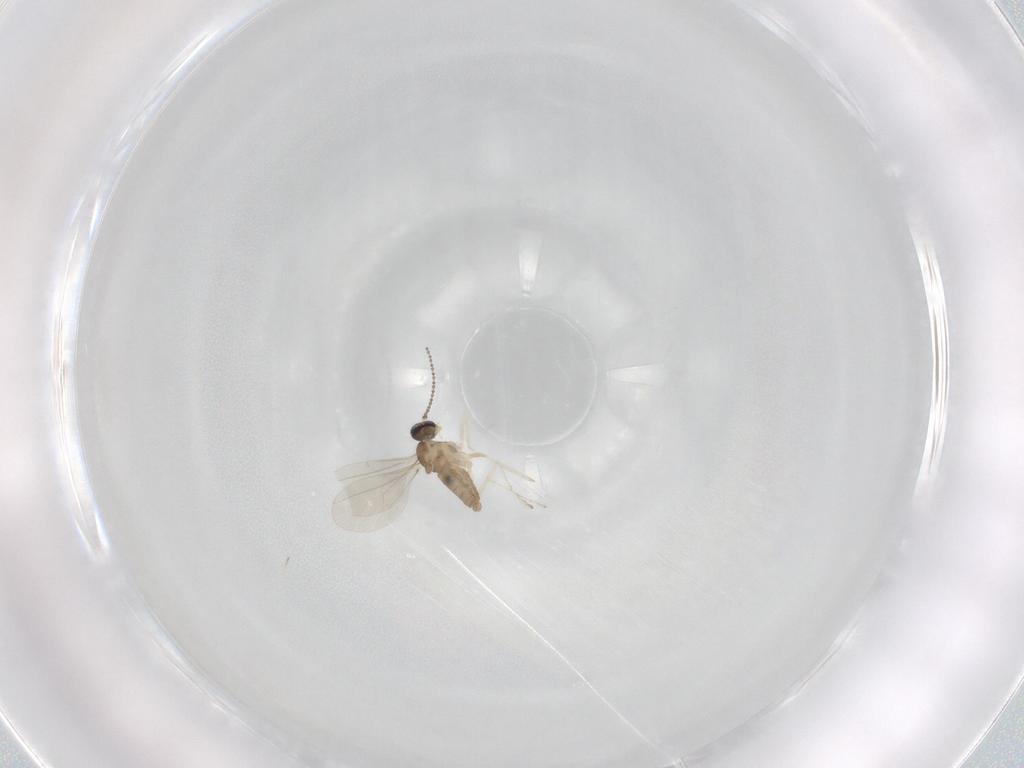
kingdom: Animalia
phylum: Arthropoda
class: Insecta
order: Diptera
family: Cecidomyiidae
